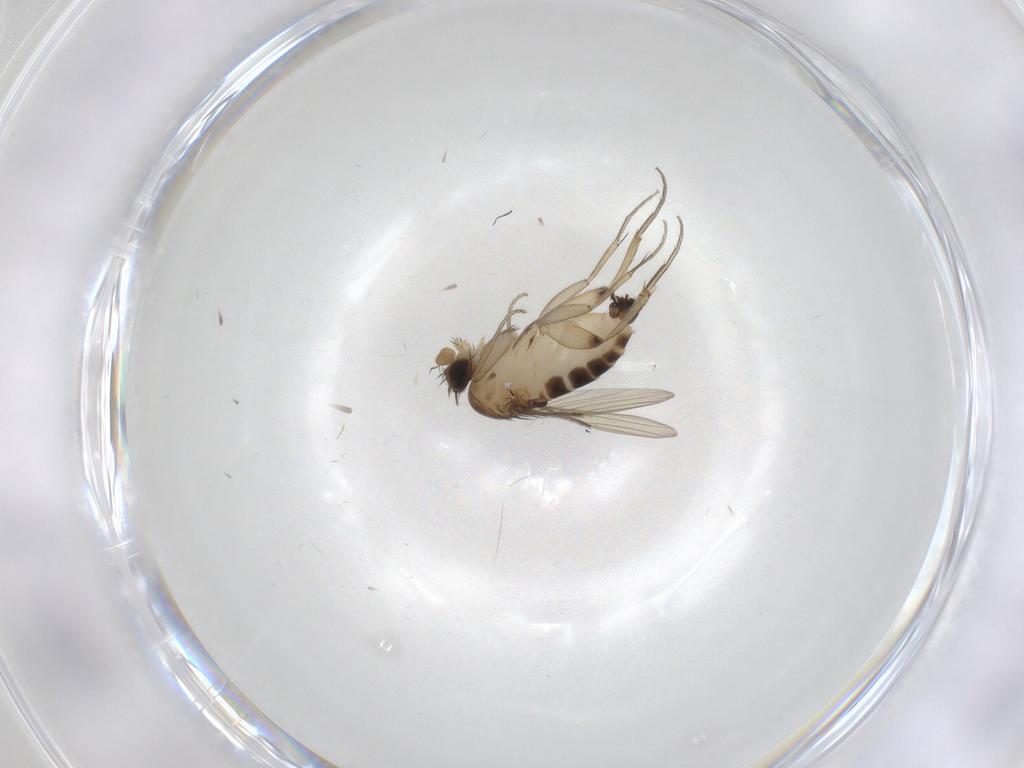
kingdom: Animalia
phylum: Arthropoda
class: Insecta
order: Diptera
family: Phoridae
